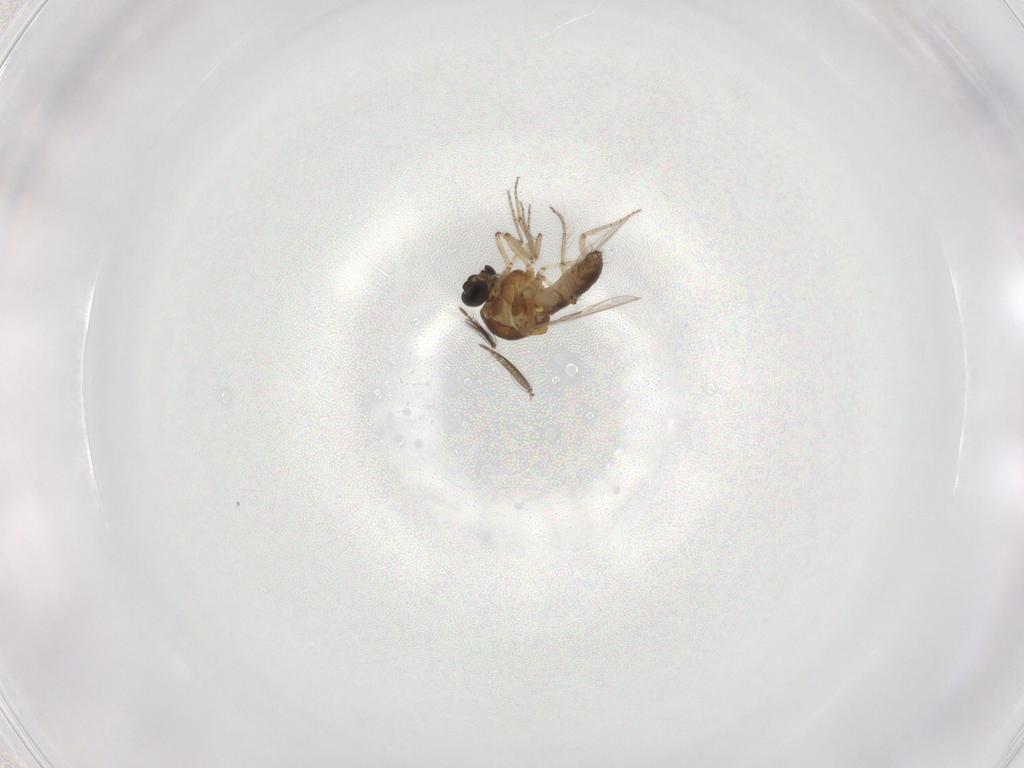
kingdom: Animalia
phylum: Arthropoda
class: Insecta
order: Diptera
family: Ceratopogonidae
